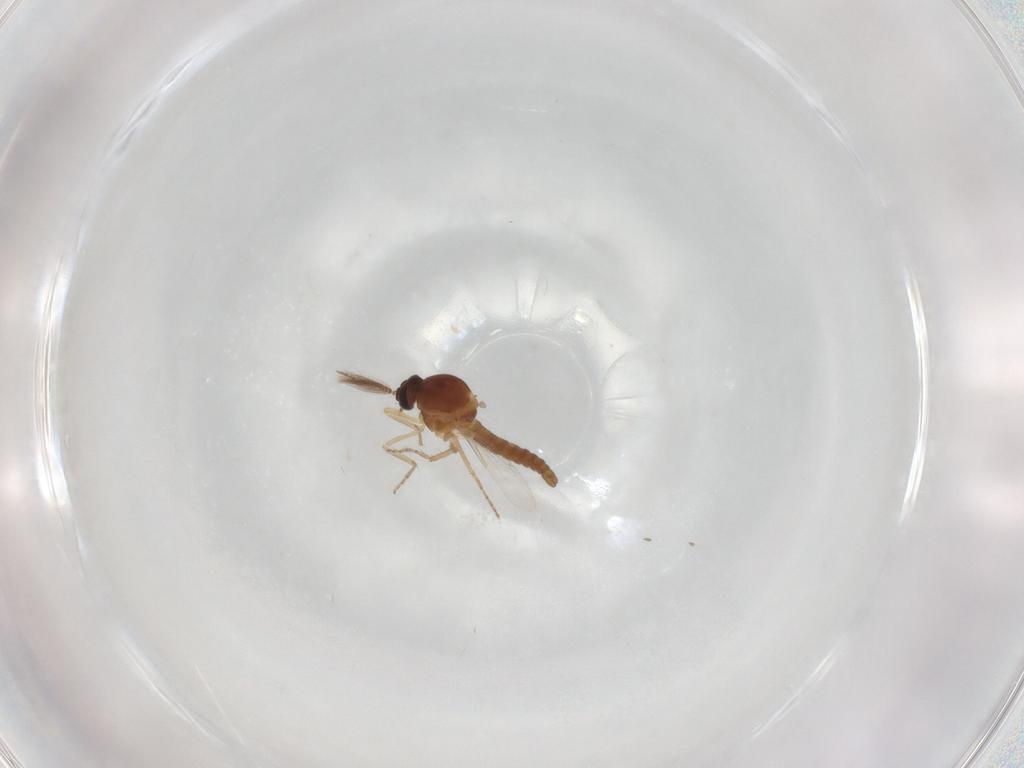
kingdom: Animalia
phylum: Arthropoda
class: Insecta
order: Diptera
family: Ceratopogonidae
